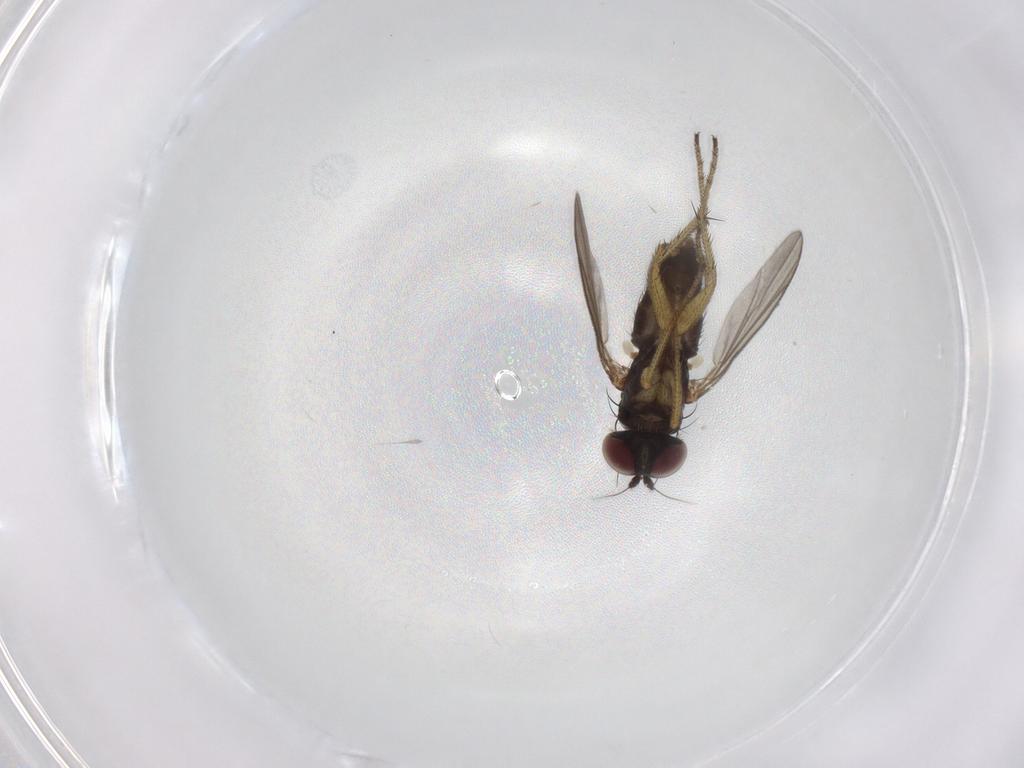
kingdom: Animalia
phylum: Arthropoda
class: Insecta
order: Diptera
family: Dolichopodidae
